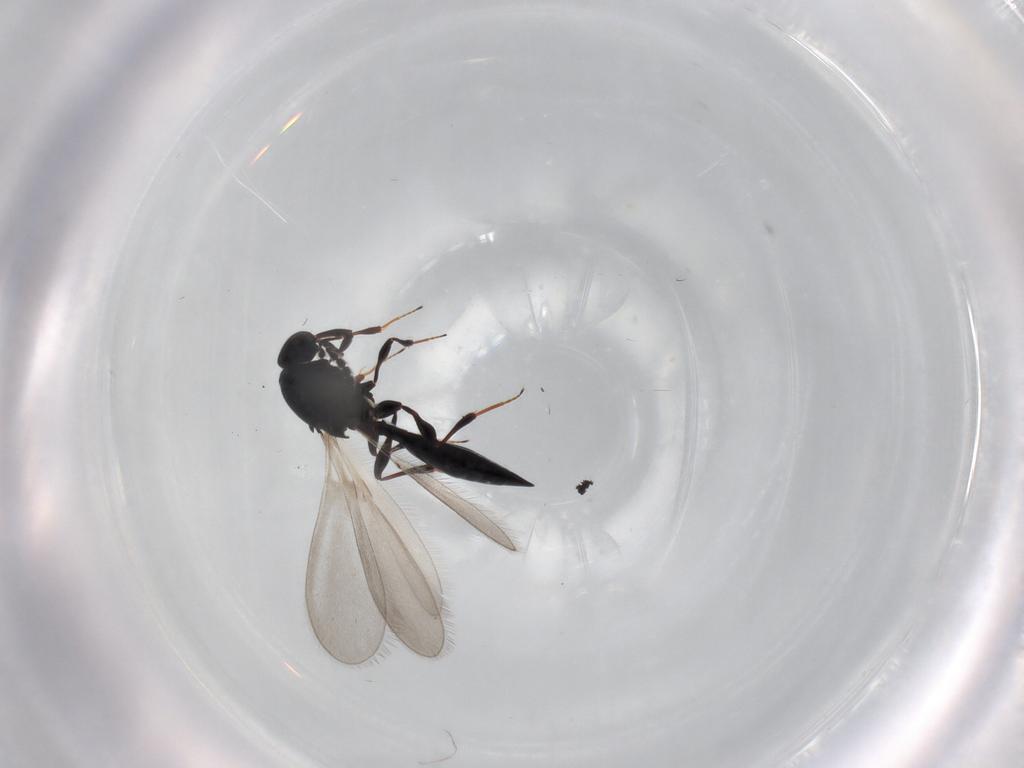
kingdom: Animalia
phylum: Arthropoda
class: Insecta
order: Hymenoptera
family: Platygastridae
